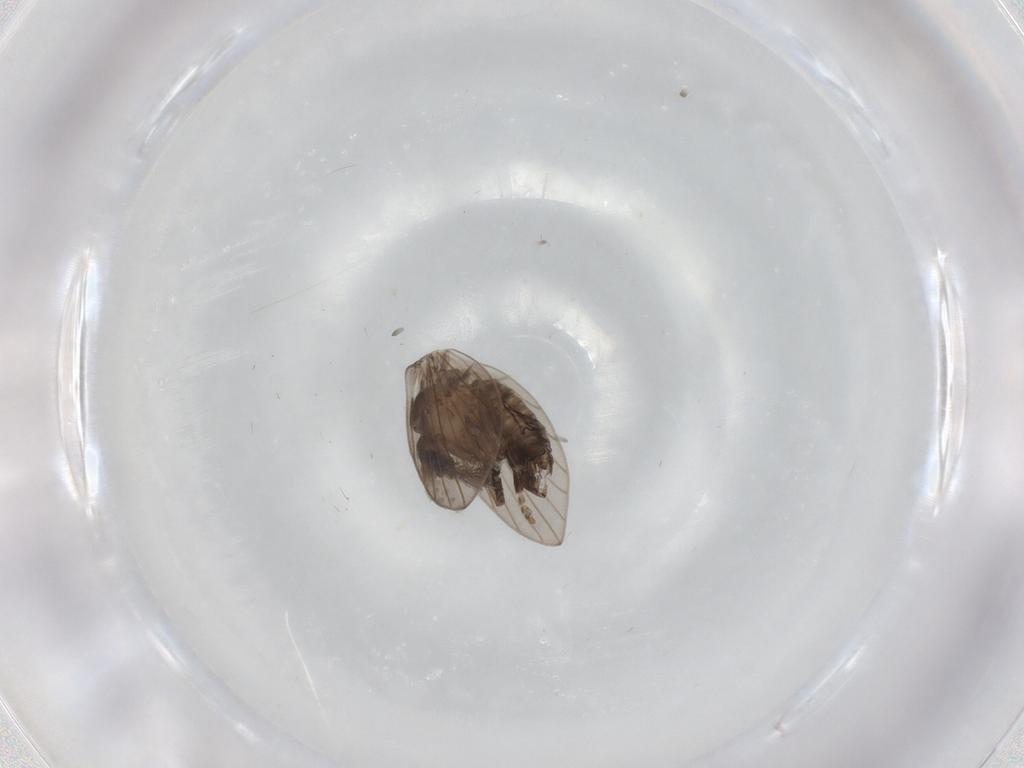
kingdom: Animalia
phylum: Arthropoda
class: Insecta
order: Diptera
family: Psychodidae
